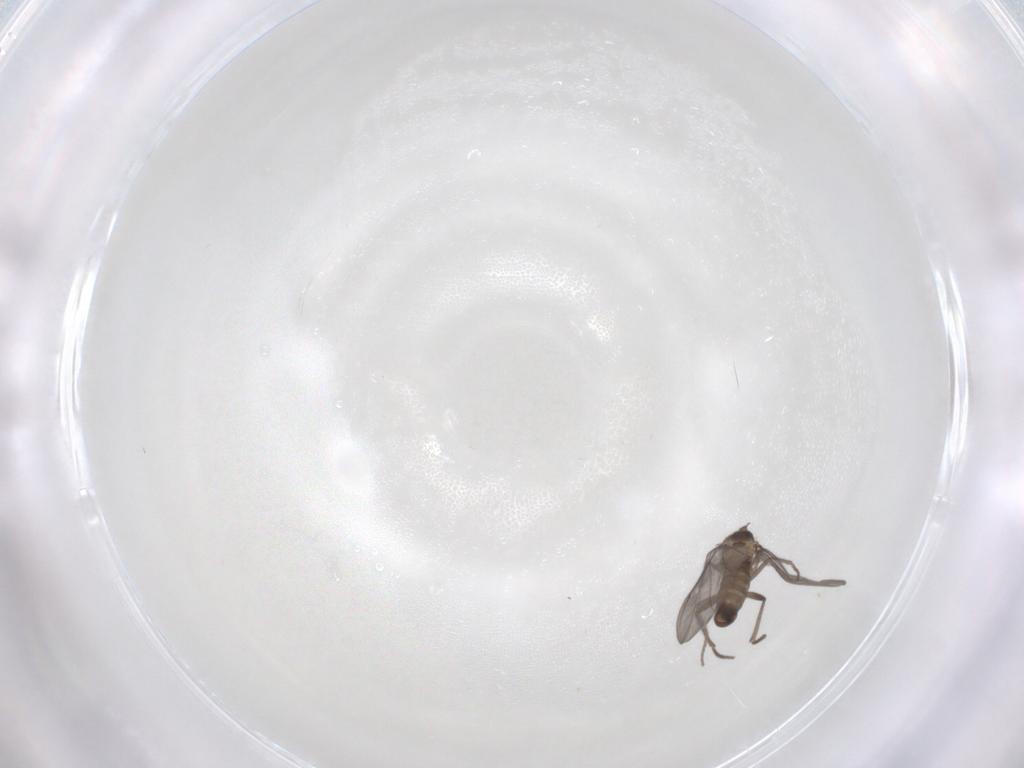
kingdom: Animalia
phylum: Arthropoda
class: Insecta
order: Diptera
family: Phoridae
